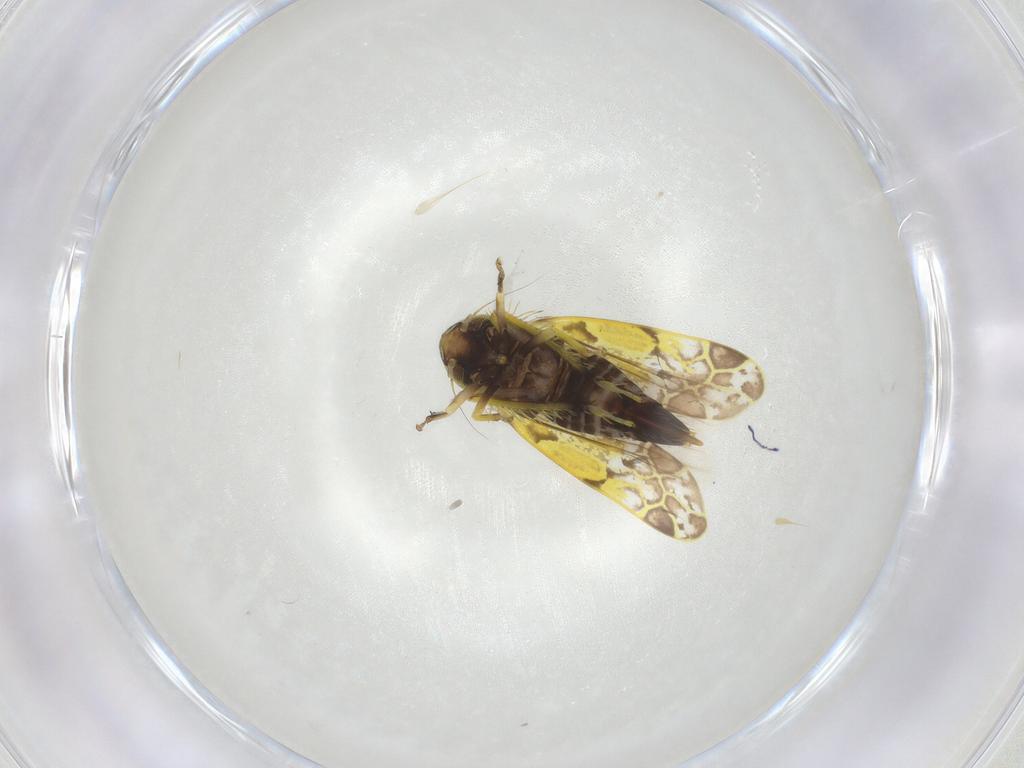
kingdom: Animalia
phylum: Arthropoda
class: Insecta
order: Hemiptera
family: Cicadellidae
